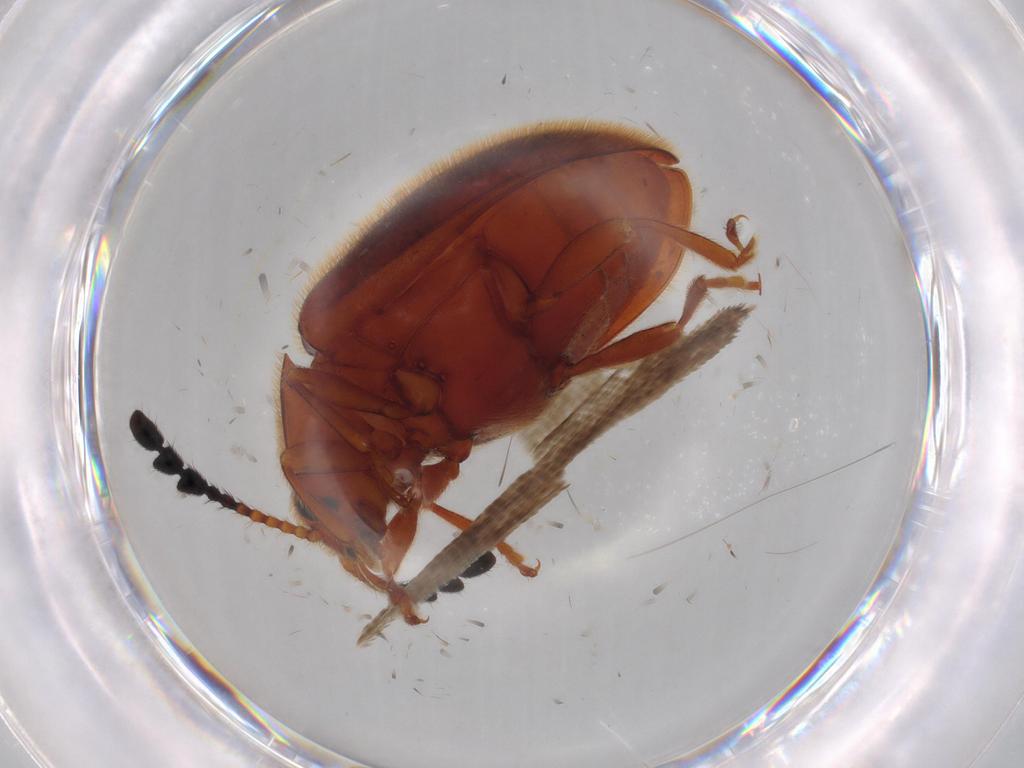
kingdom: Animalia
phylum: Arthropoda
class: Insecta
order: Coleoptera
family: Endomychidae
